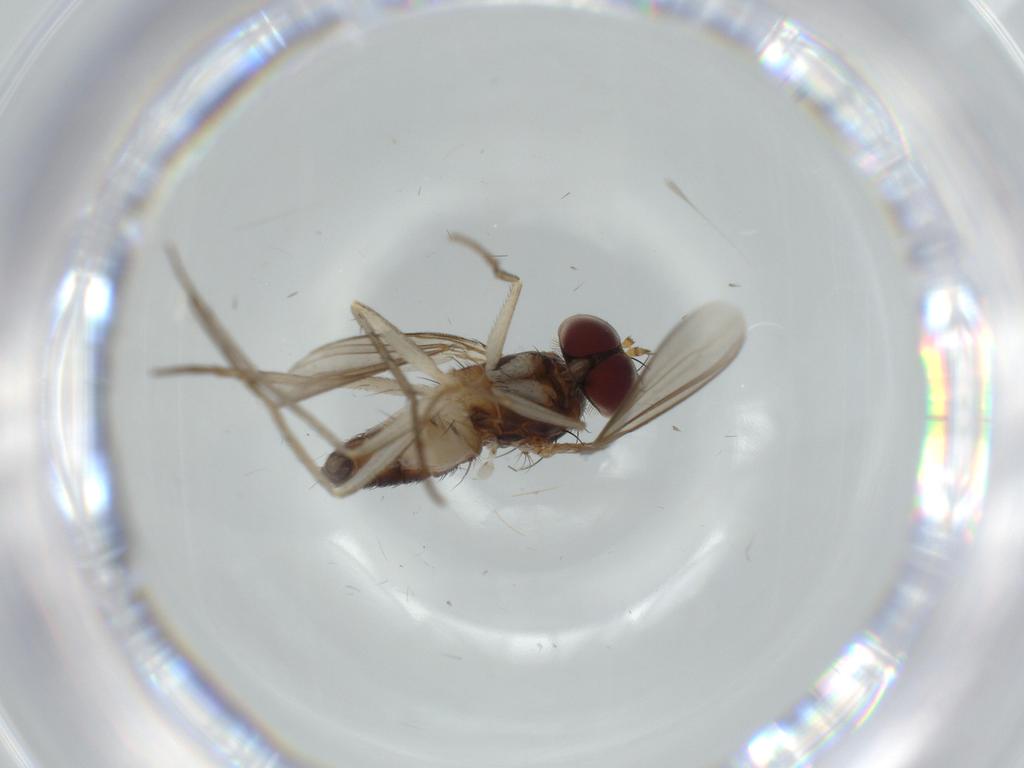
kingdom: Animalia
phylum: Arthropoda
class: Insecta
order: Diptera
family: Dolichopodidae
